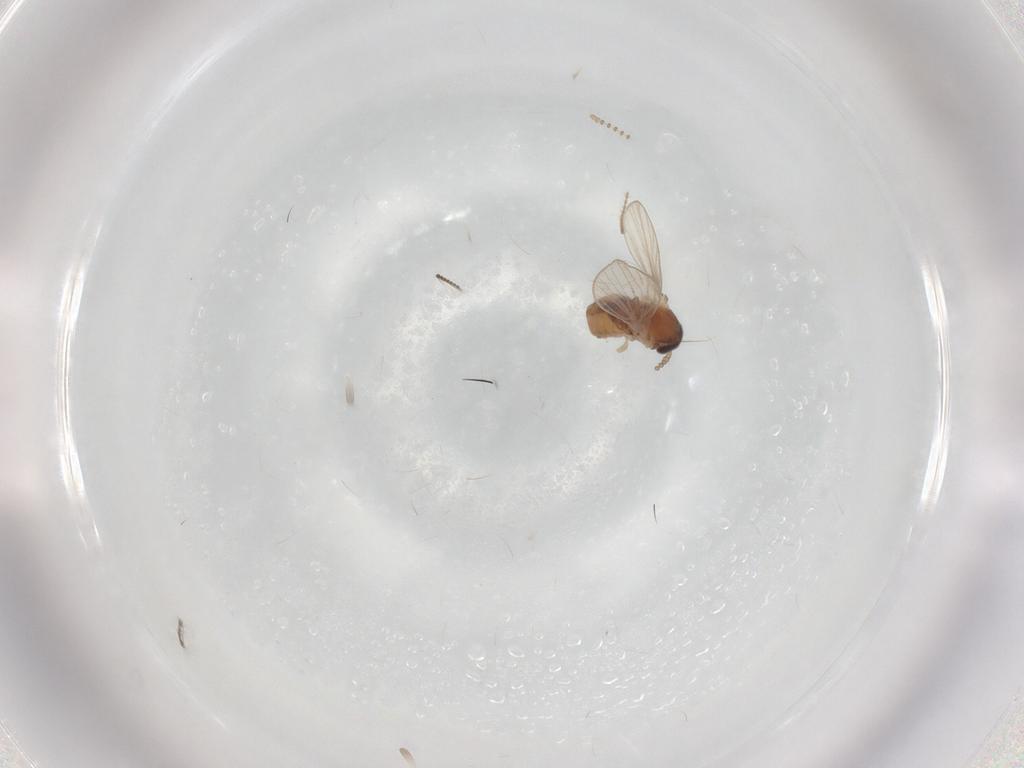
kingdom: Animalia
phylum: Arthropoda
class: Insecta
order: Diptera
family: Psychodidae
